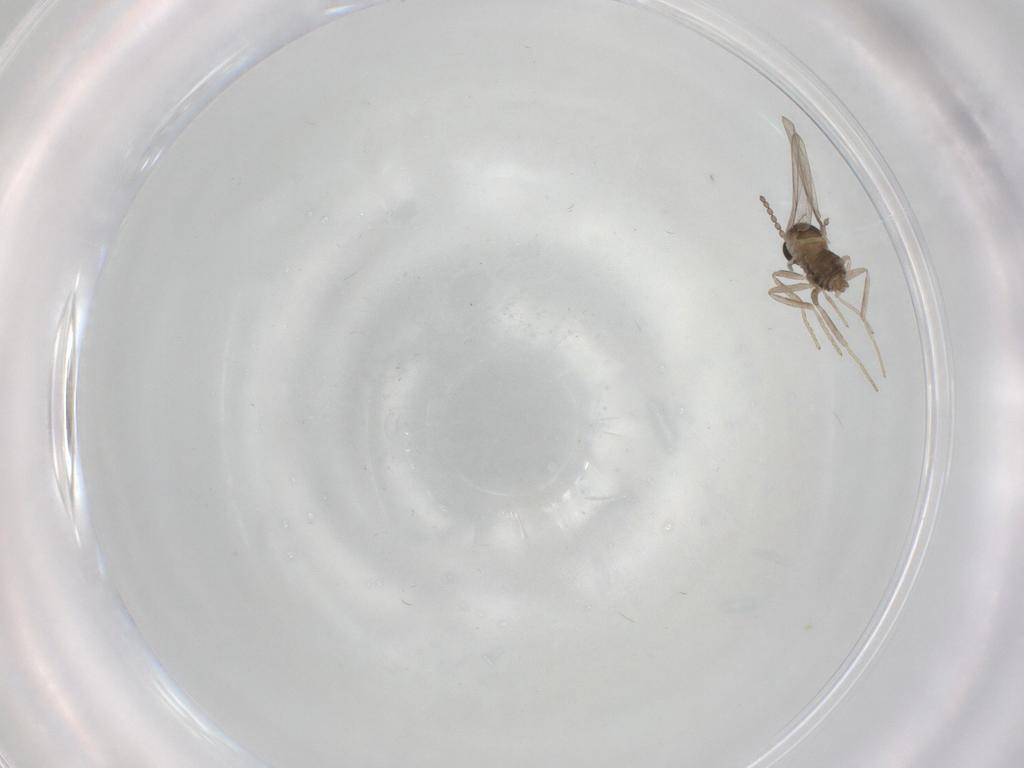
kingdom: Animalia
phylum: Arthropoda
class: Insecta
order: Diptera
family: Cecidomyiidae
